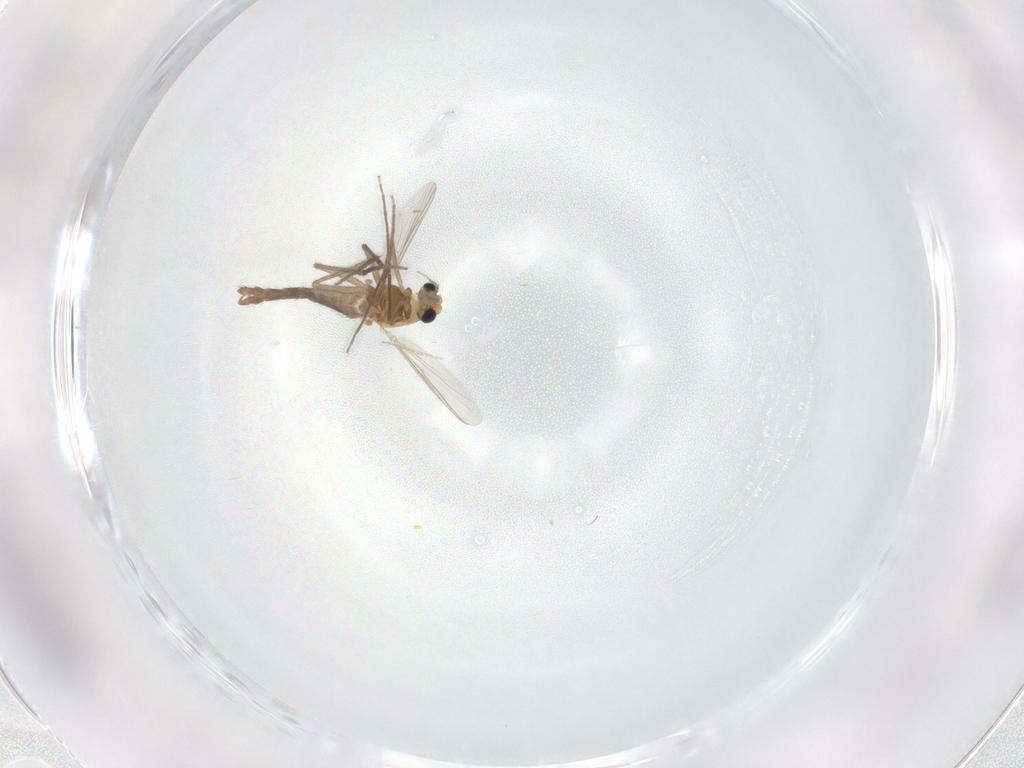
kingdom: Animalia
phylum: Arthropoda
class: Insecta
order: Diptera
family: Chironomidae
